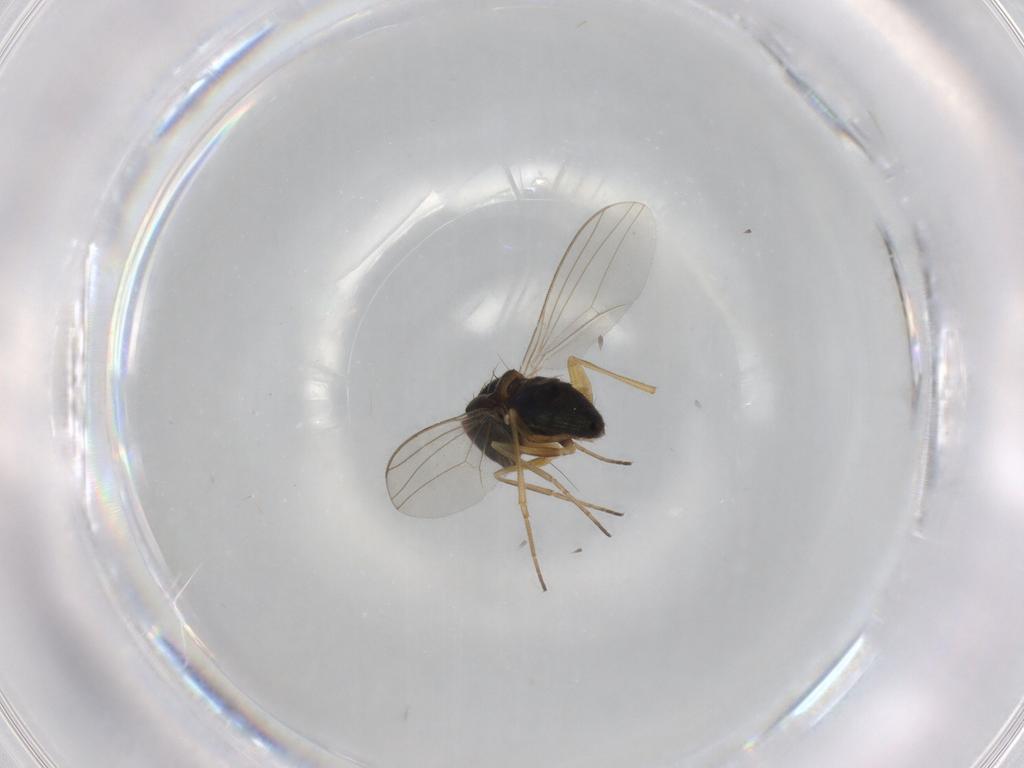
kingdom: Animalia
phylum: Arthropoda
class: Insecta
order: Diptera
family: Dolichopodidae
